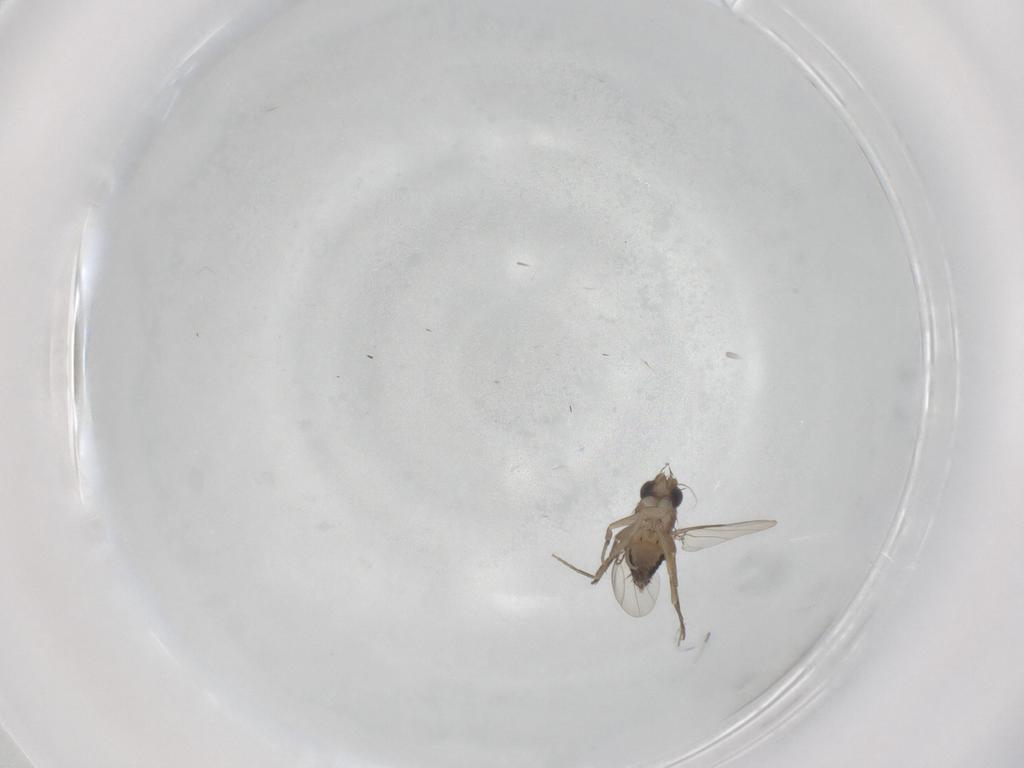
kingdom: Animalia
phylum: Arthropoda
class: Insecta
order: Diptera
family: Phoridae
